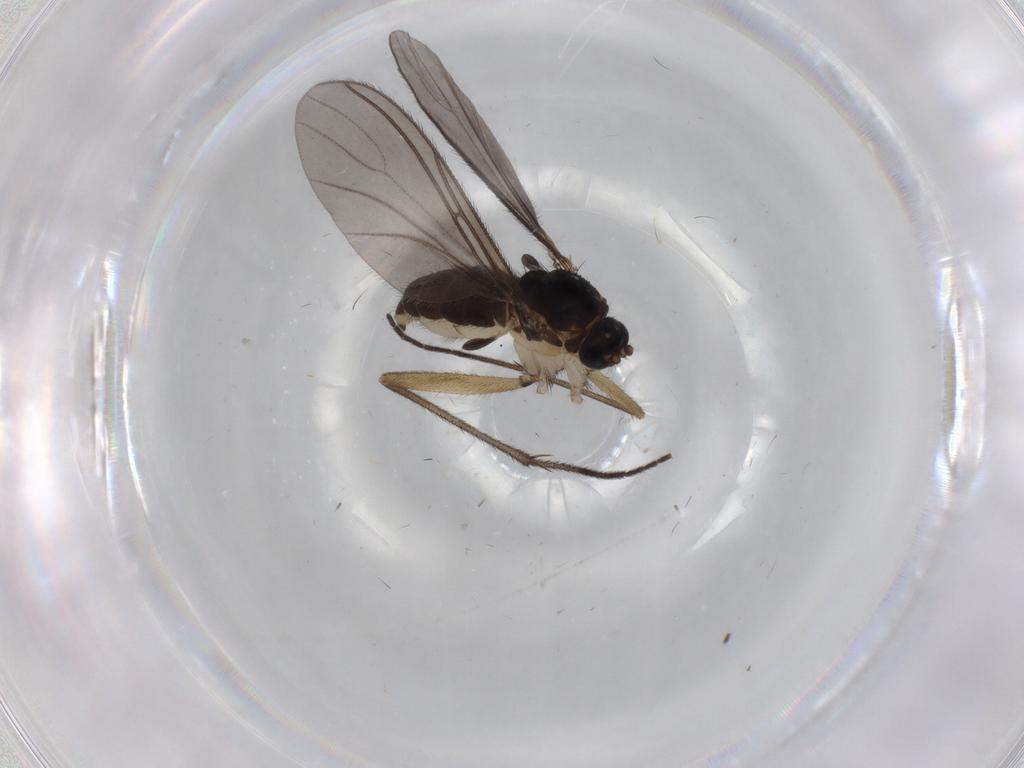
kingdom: Animalia
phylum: Arthropoda
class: Insecta
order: Diptera
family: Sciaridae
